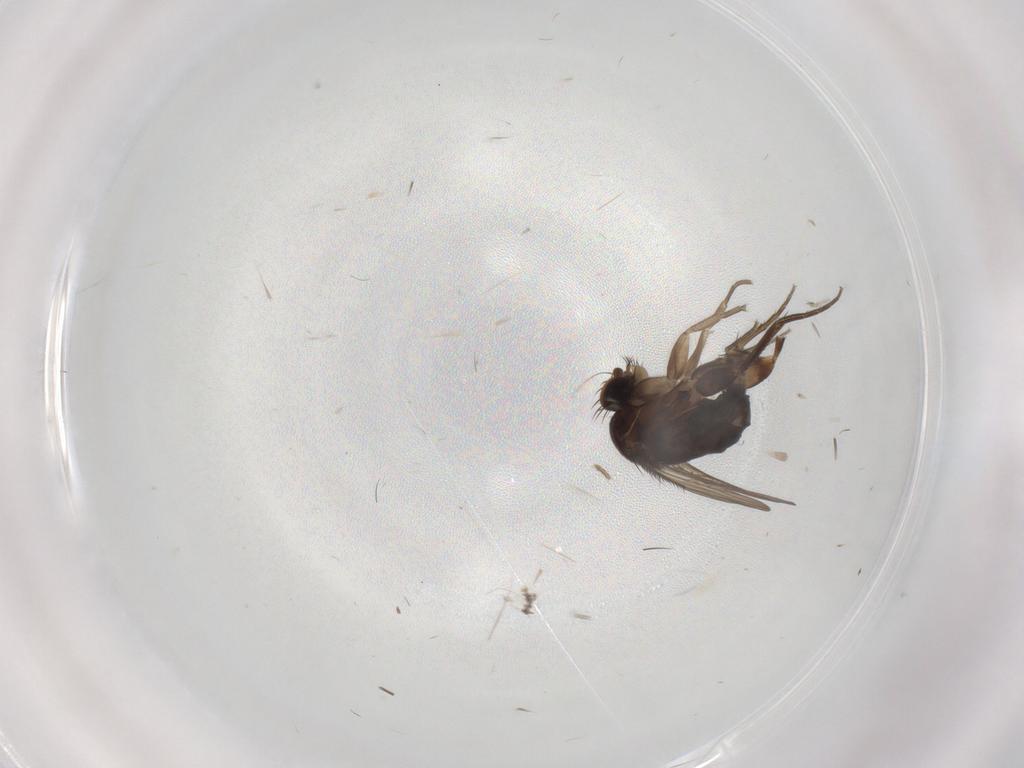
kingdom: Animalia
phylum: Arthropoda
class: Insecta
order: Diptera
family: Phoridae
